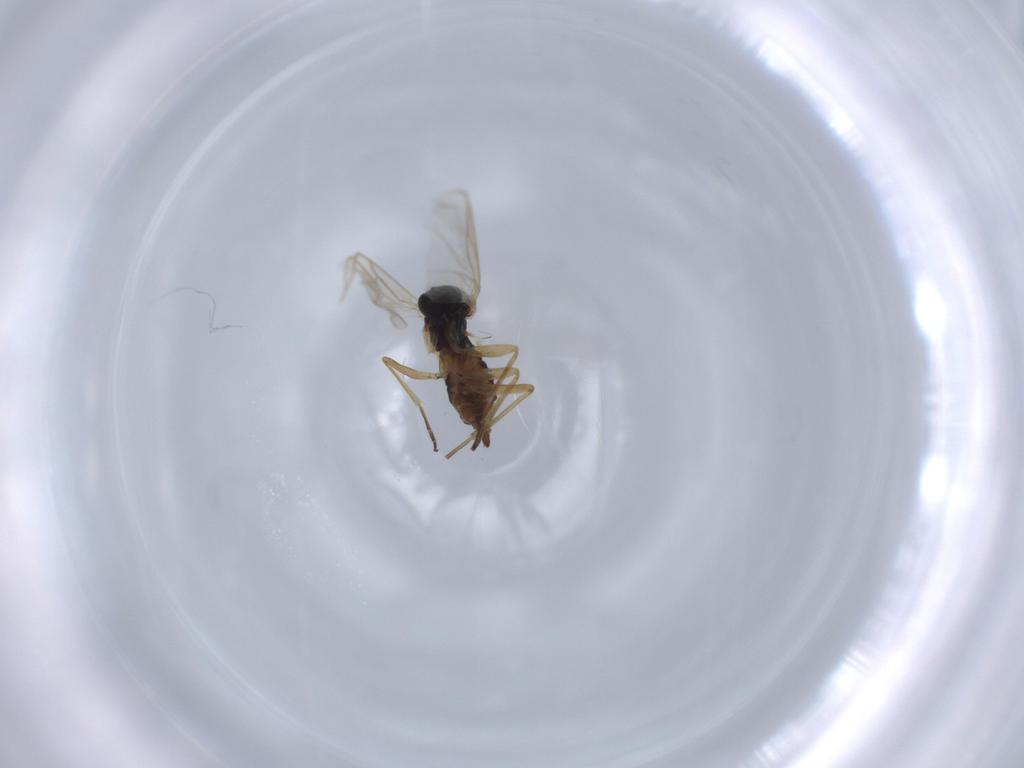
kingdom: Animalia
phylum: Arthropoda
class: Insecta
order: Diptera
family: Sciaridae
